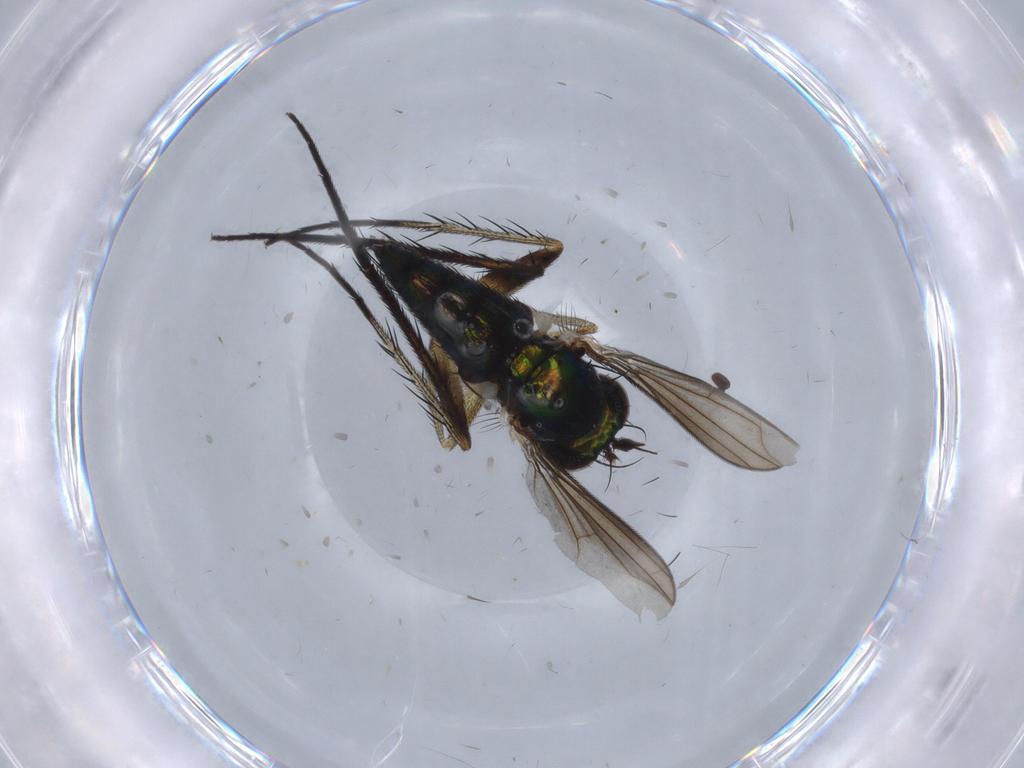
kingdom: Animalia
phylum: Arthropoda
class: Insecta
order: Diptera
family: Dolichopodidae
